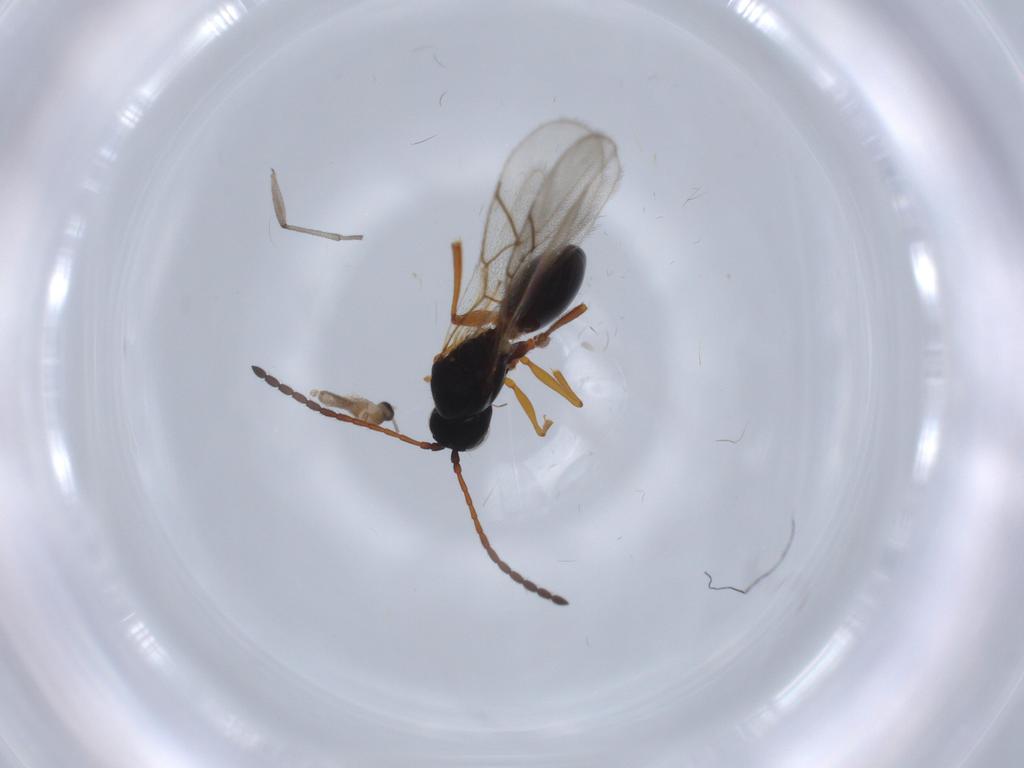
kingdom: Animalia
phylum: Arthropoda
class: Insecta
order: Hymenoptera
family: Figitidae
